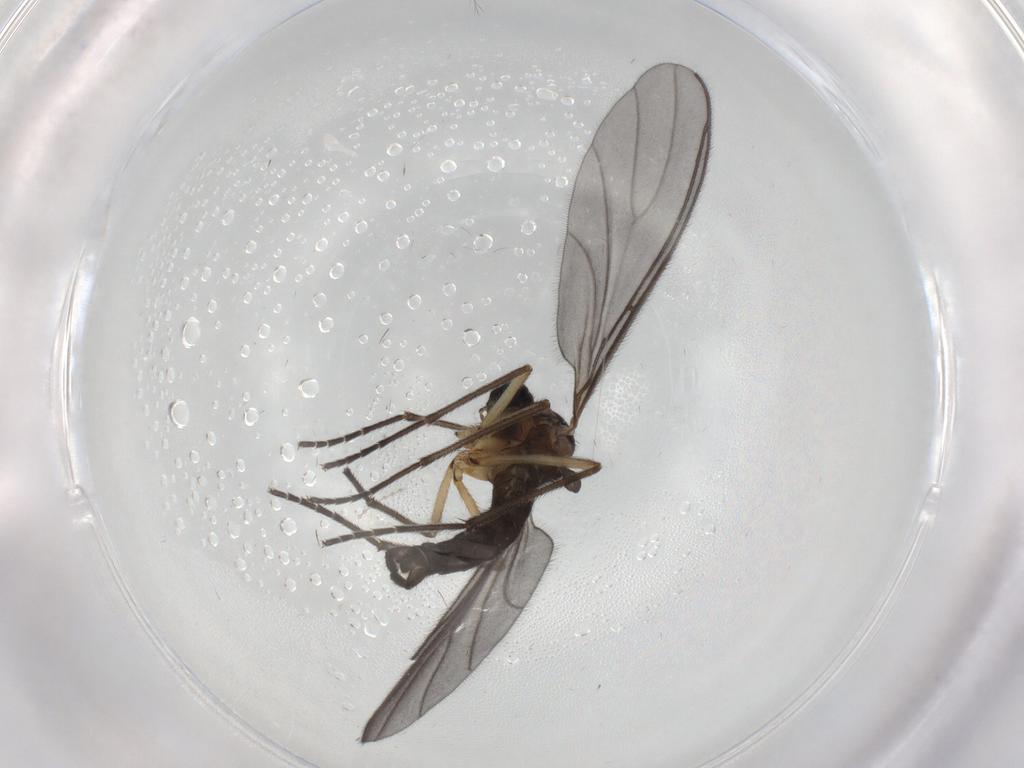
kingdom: Animalia
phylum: Arthropoda
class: Insecta
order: Diptera
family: Sciaridae
